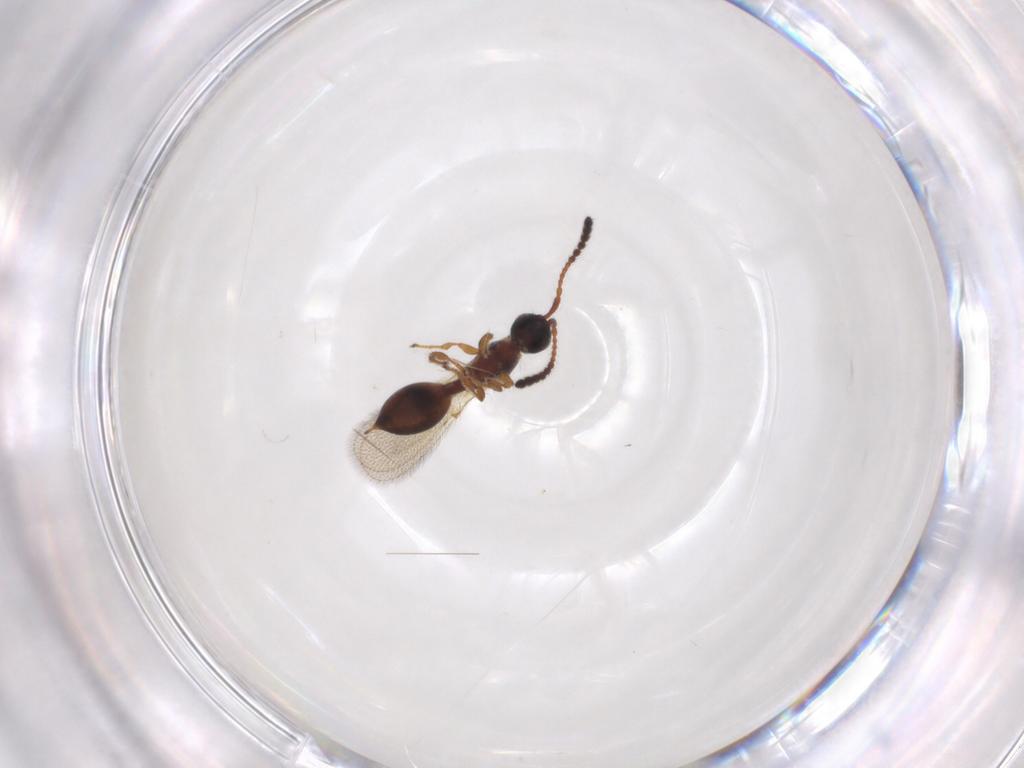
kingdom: Animalia
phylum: Arthropoda
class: Insecta
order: Hymenoptera
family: Diapriidae
